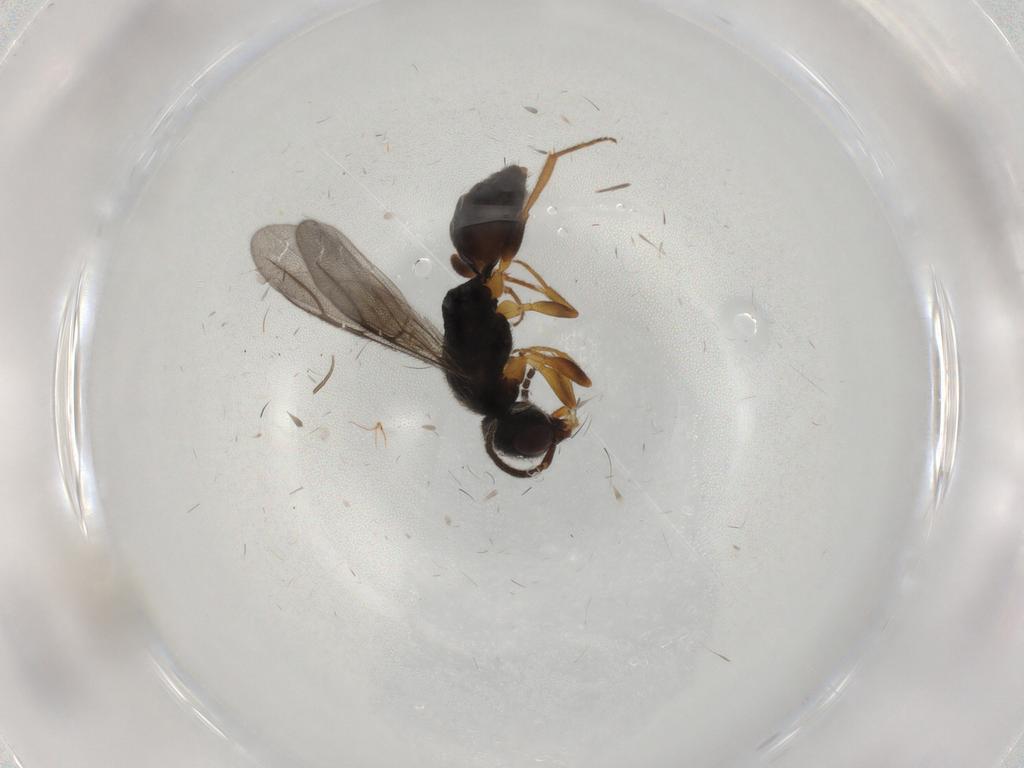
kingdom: Animalia
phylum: Arthropoda
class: Insecta
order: Hymenoptera
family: Bethylidae
